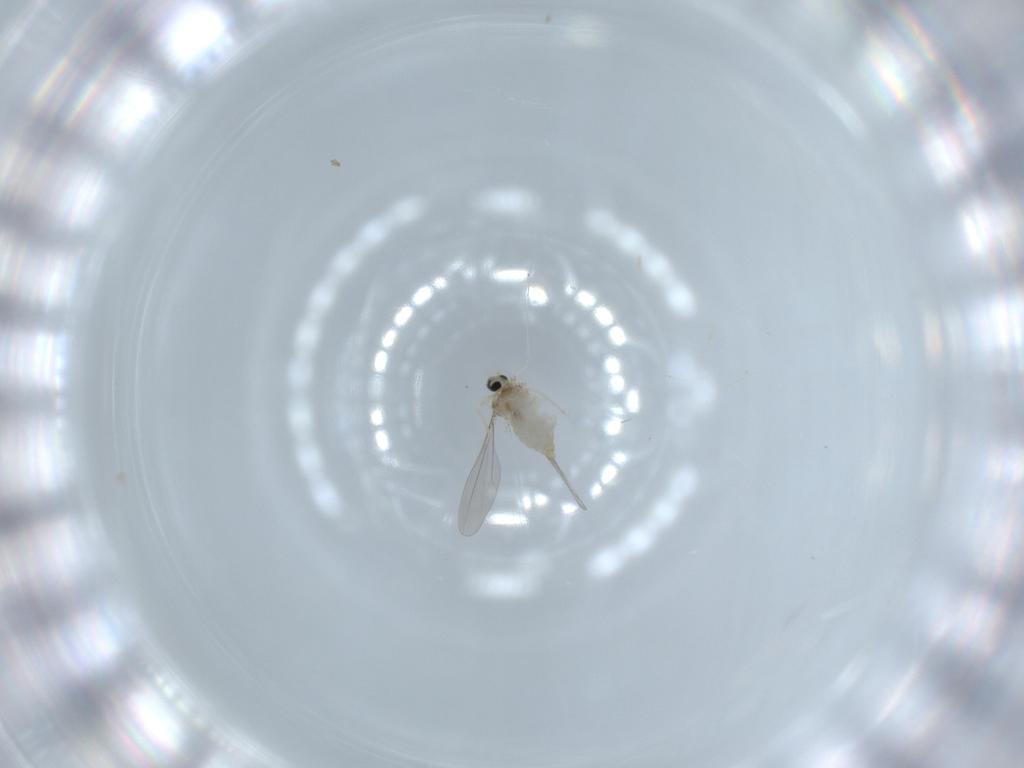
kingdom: Animalia
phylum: Arthropoda
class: Insecta
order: Diptera
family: Cecidomyiidae
